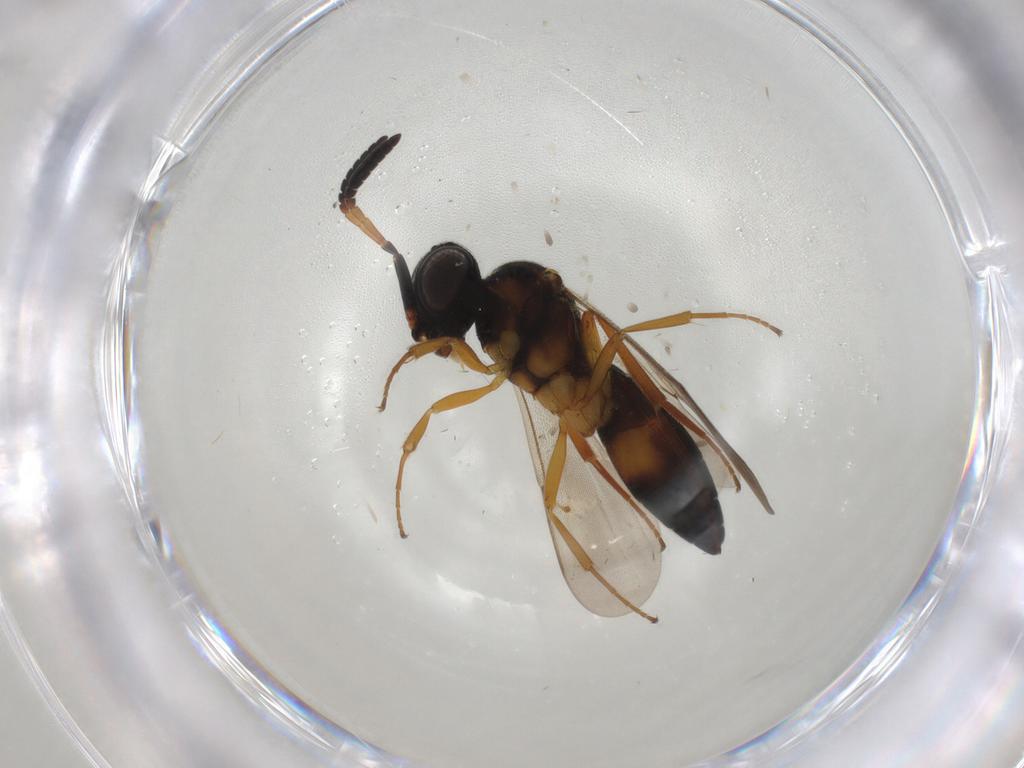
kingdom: Animalia
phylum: Arthropoda
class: Insecta
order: Hymenoptera
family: Scelionidae
